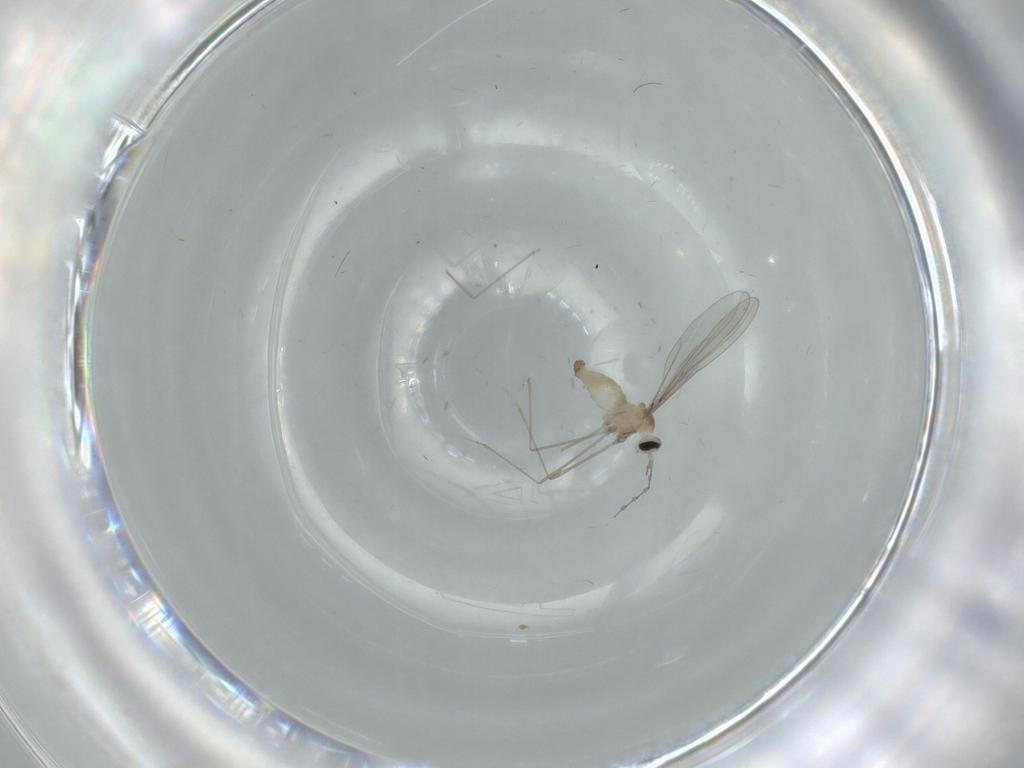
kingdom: Animalia
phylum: Arthropoda
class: Insecta
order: Diptera
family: Cecidomyiidae
